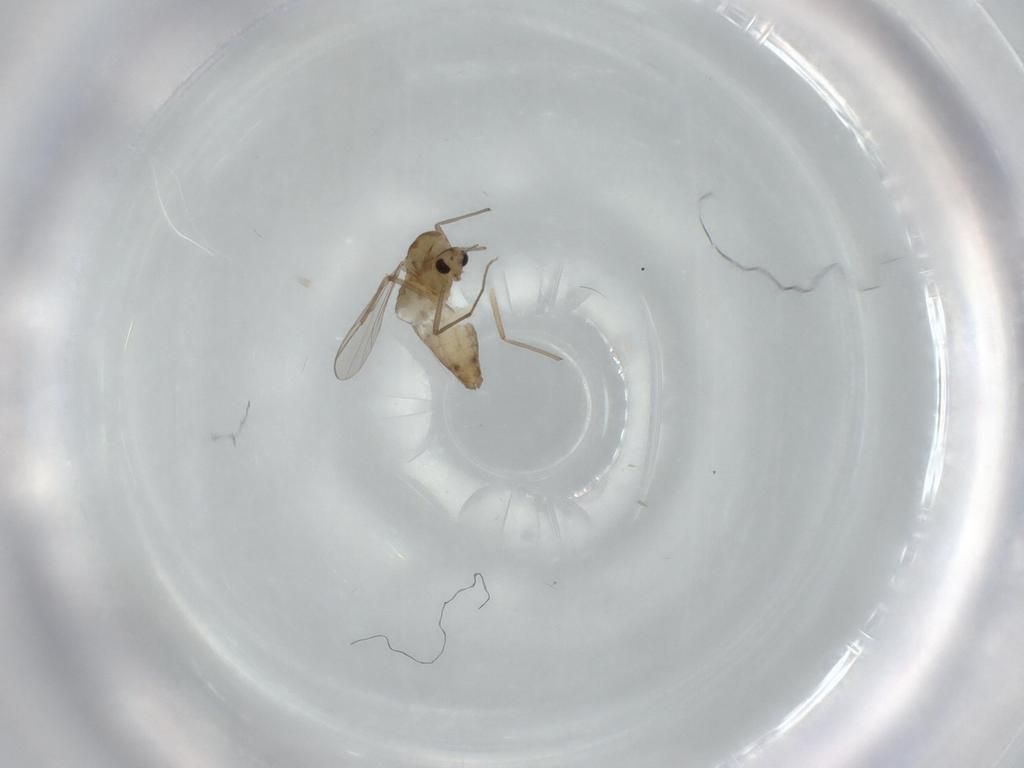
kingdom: Animalia
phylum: Arthropoda
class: Insecta
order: Diptera
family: Chironomidae
